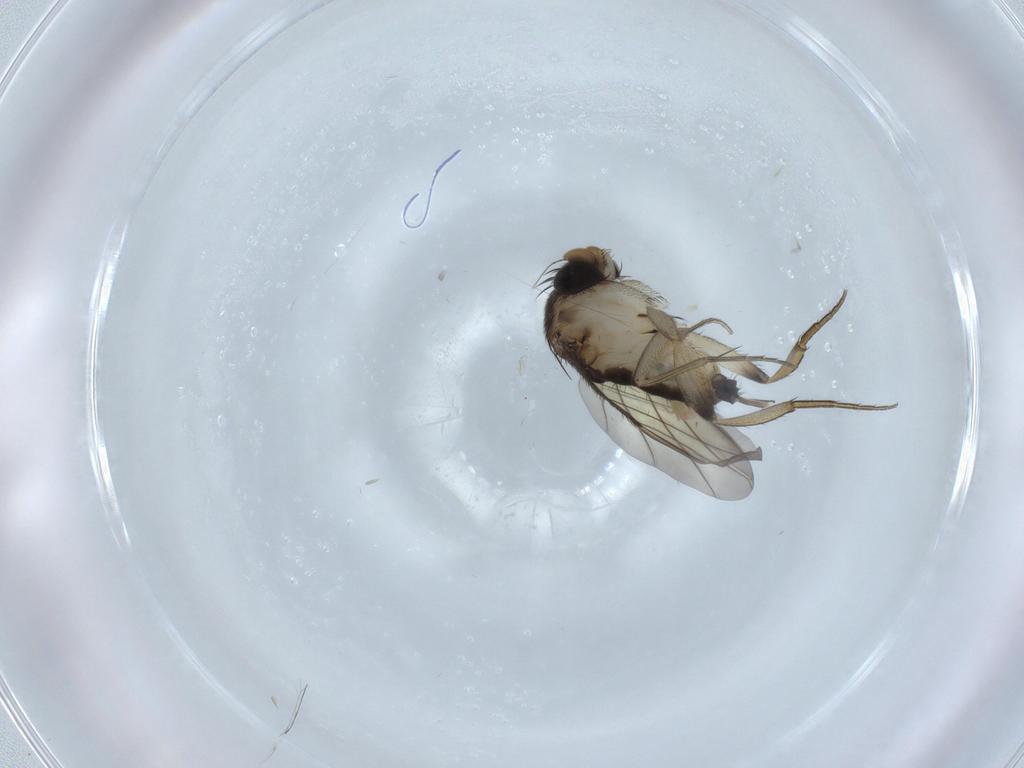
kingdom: Animalia
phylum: Arthropoda
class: Insecta
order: Diptera
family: Phoridae
